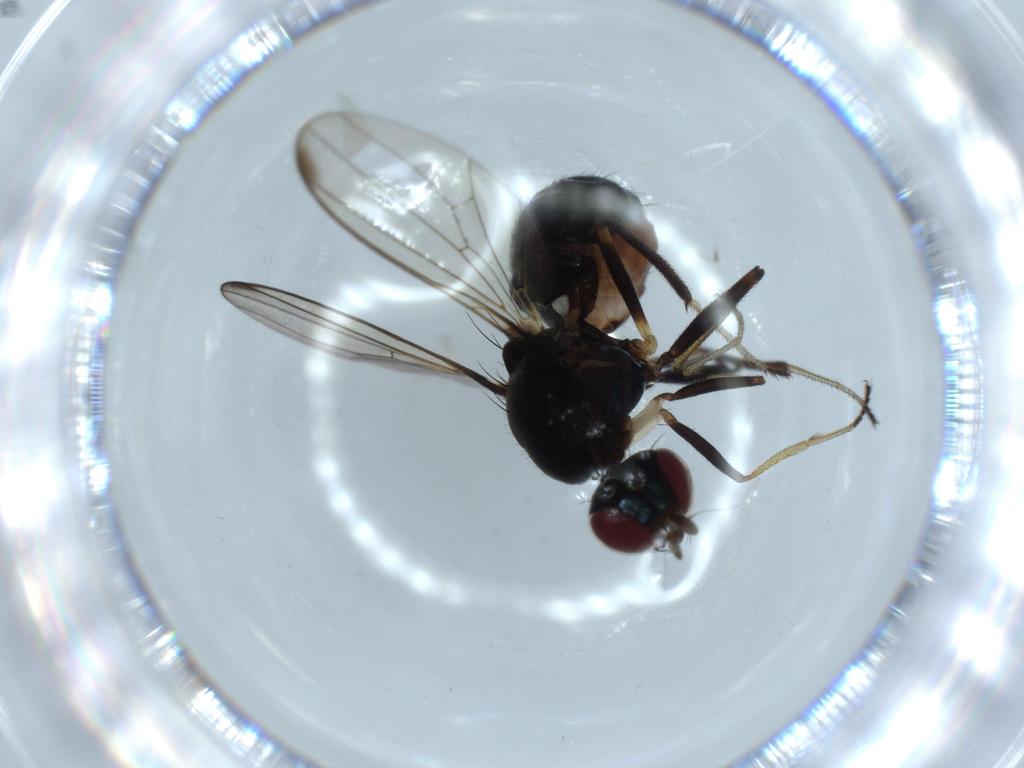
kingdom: Animalia
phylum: Arthropoda
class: Insecta
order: Diptera
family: Sepsidae
